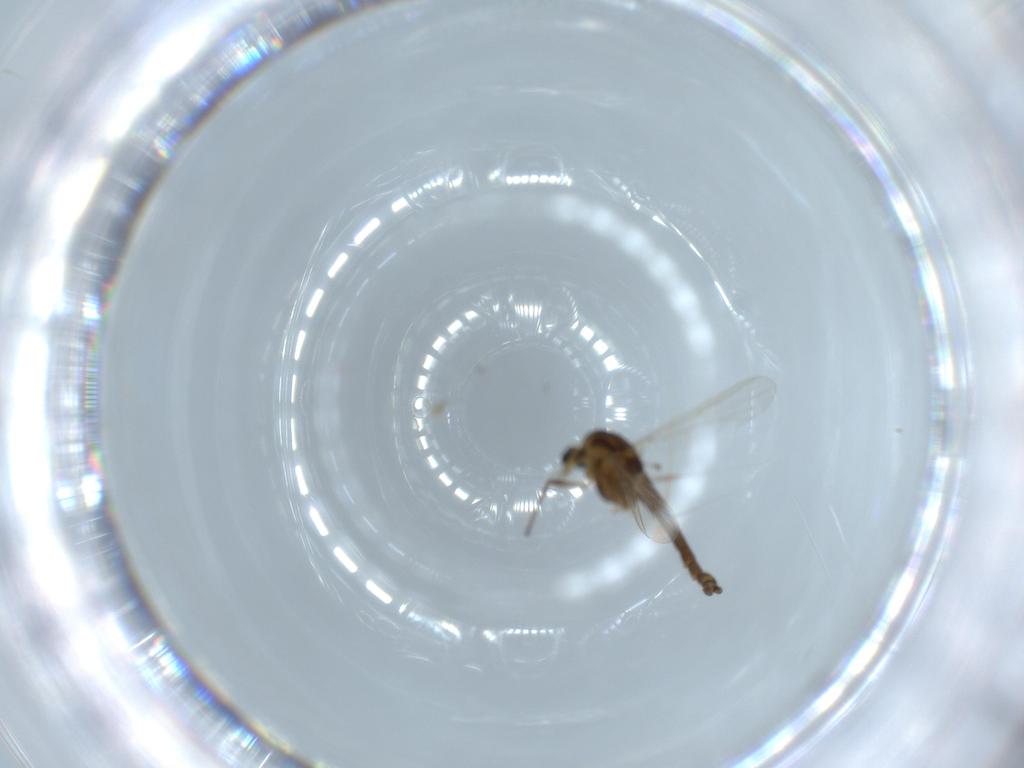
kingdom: Animalia
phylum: Arthropoda
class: Insecta
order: Diptera
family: Chironomidae
